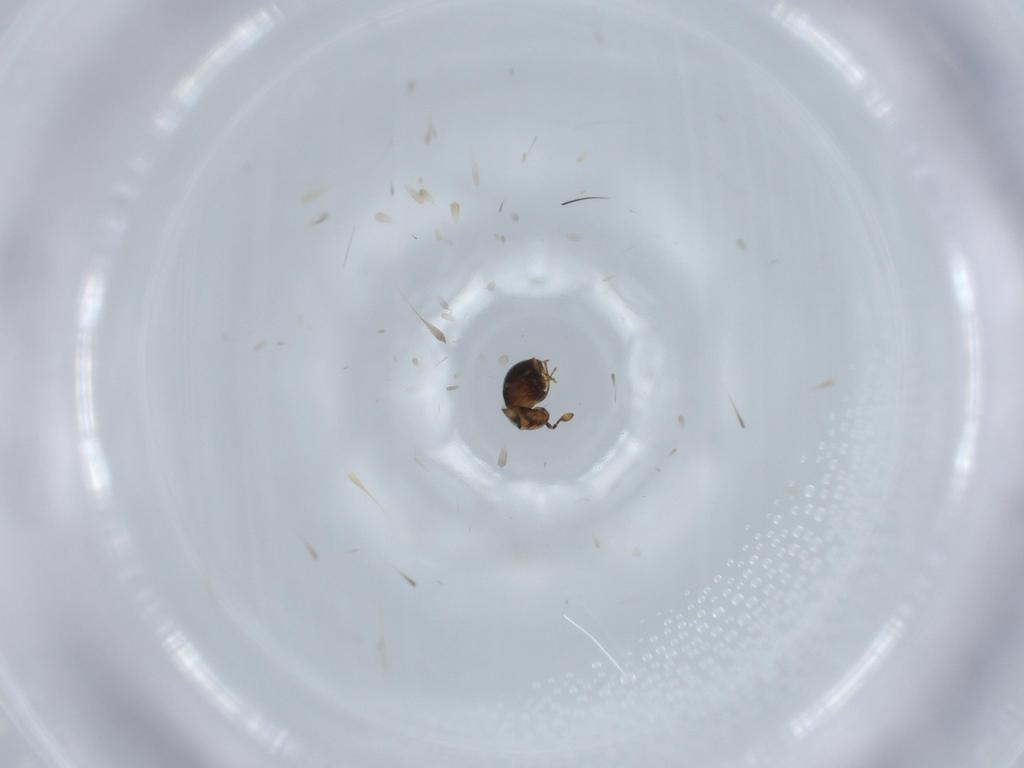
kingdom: Animalia
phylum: Arthropoda
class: Insecta
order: Hymenoptera
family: Scelionidae
